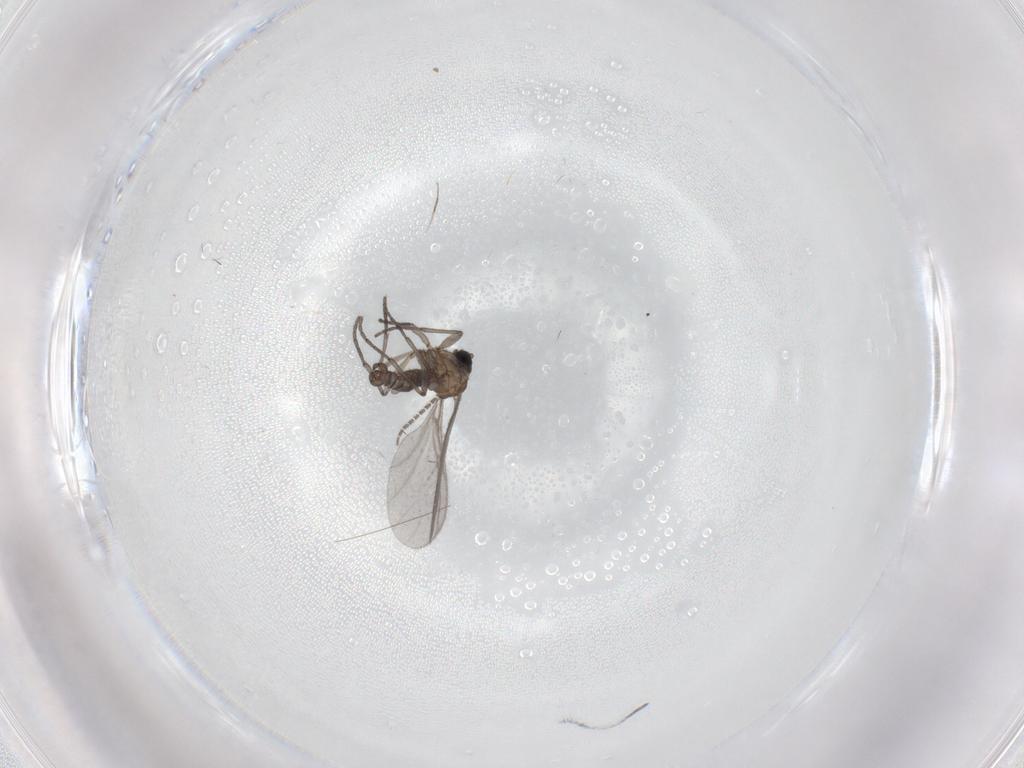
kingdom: Animalia
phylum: Arthropoda
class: Insecta
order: Diptera
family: Sciaridae
